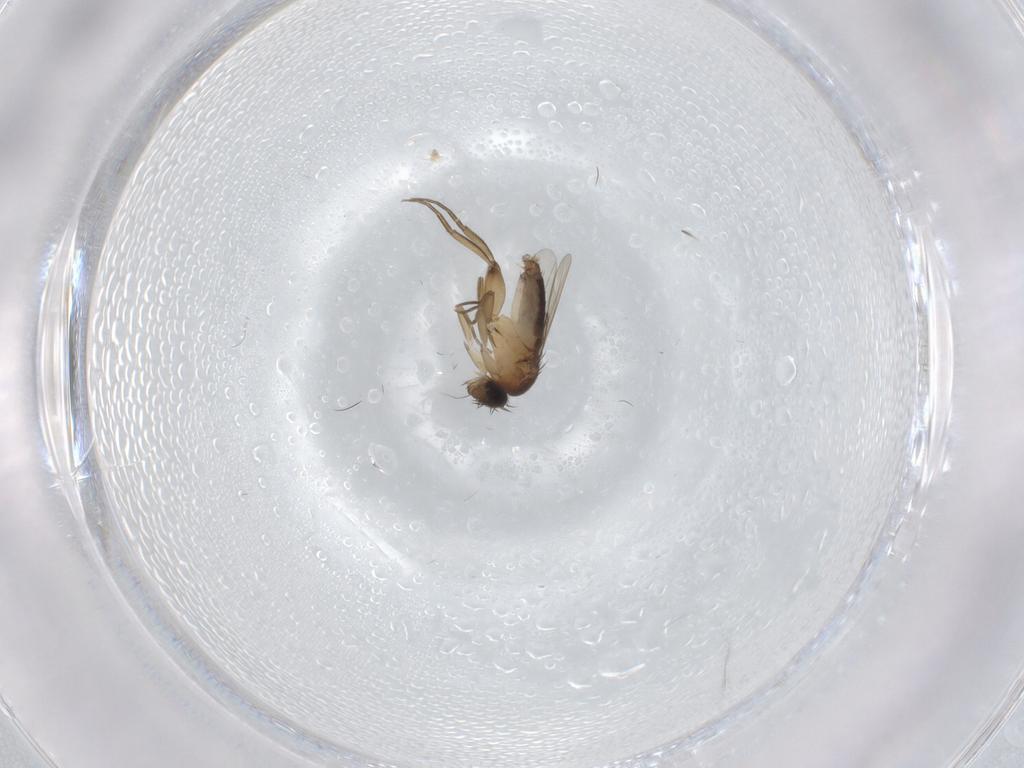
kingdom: Animalia
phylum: Arthropoda
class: Insecta
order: Diptera
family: Phoridae
